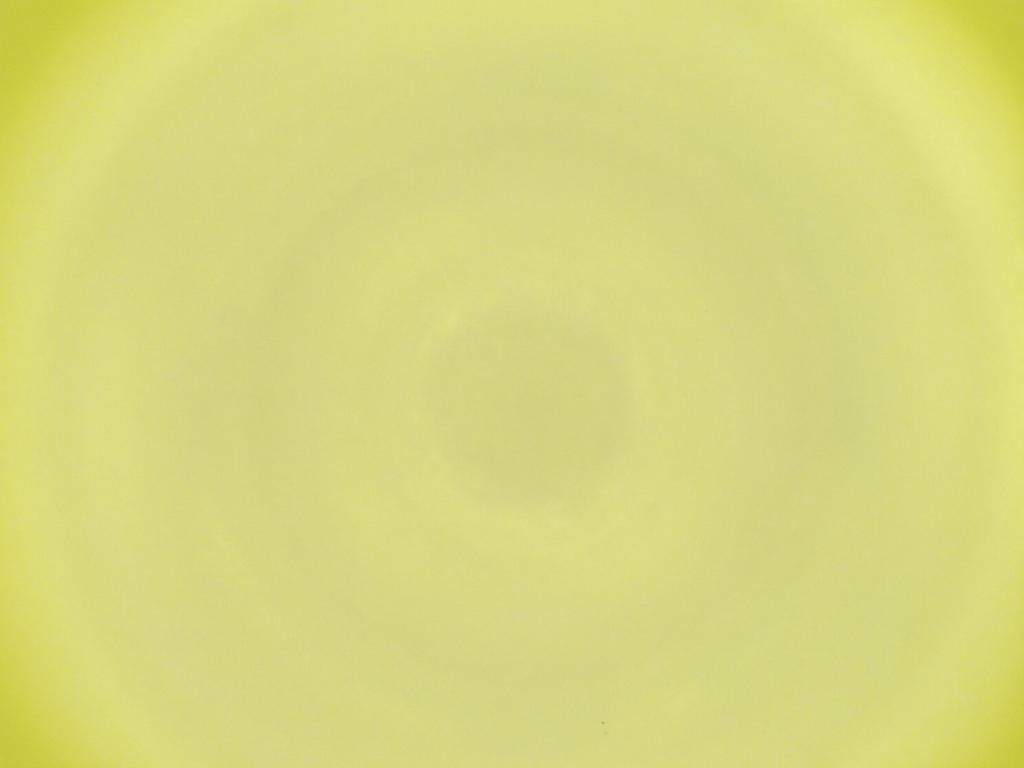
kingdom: Animalia
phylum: Arthropoda
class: Insecta
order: Diptera
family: Cecidomyiidae
